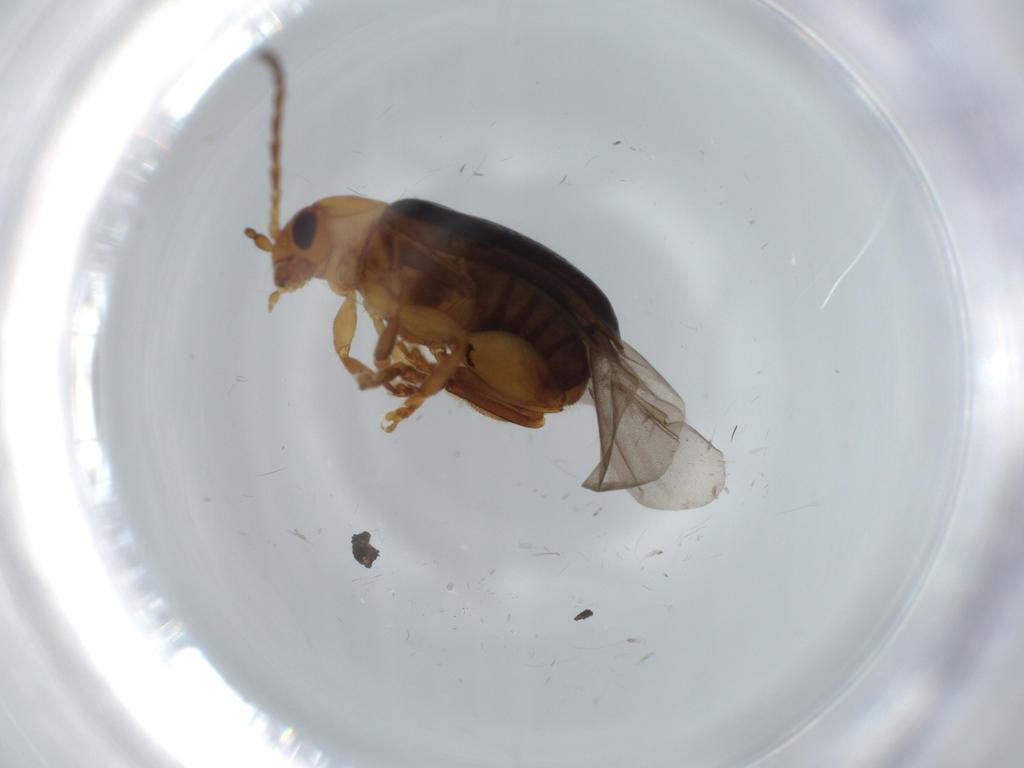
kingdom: Animalia
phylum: Arthropoda
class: Insecta
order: Coleoptera
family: Chrysomelidae
